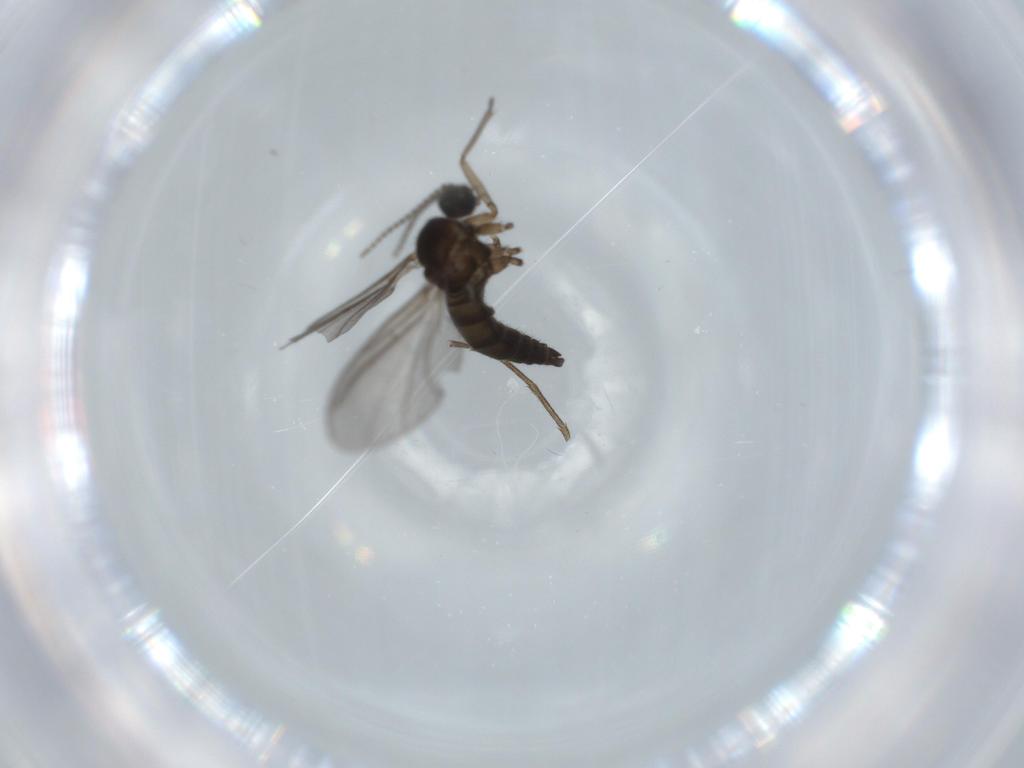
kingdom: Animalia
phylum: Arthropoda
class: Insecta
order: Diptera
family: Sciaridae
